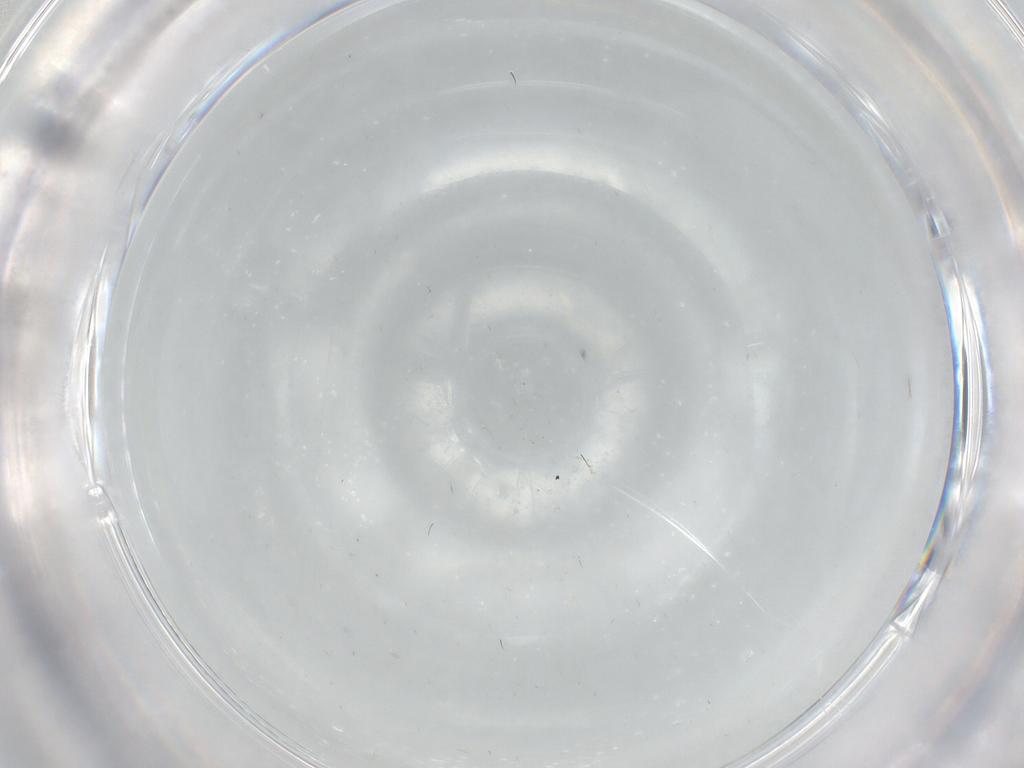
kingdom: Animalia
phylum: Arthropoda
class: Insecta
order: Diptera
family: Cecidomyiidae
